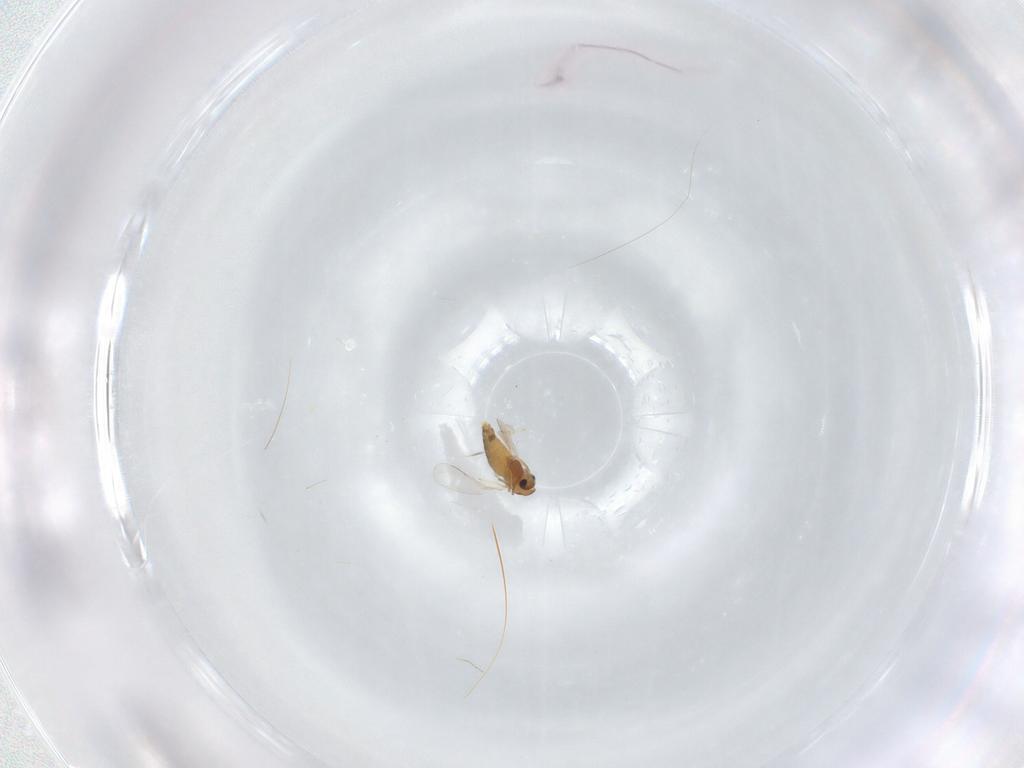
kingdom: Animalia
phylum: Arthropoda
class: Insecta
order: Diptera
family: Chironomidae
